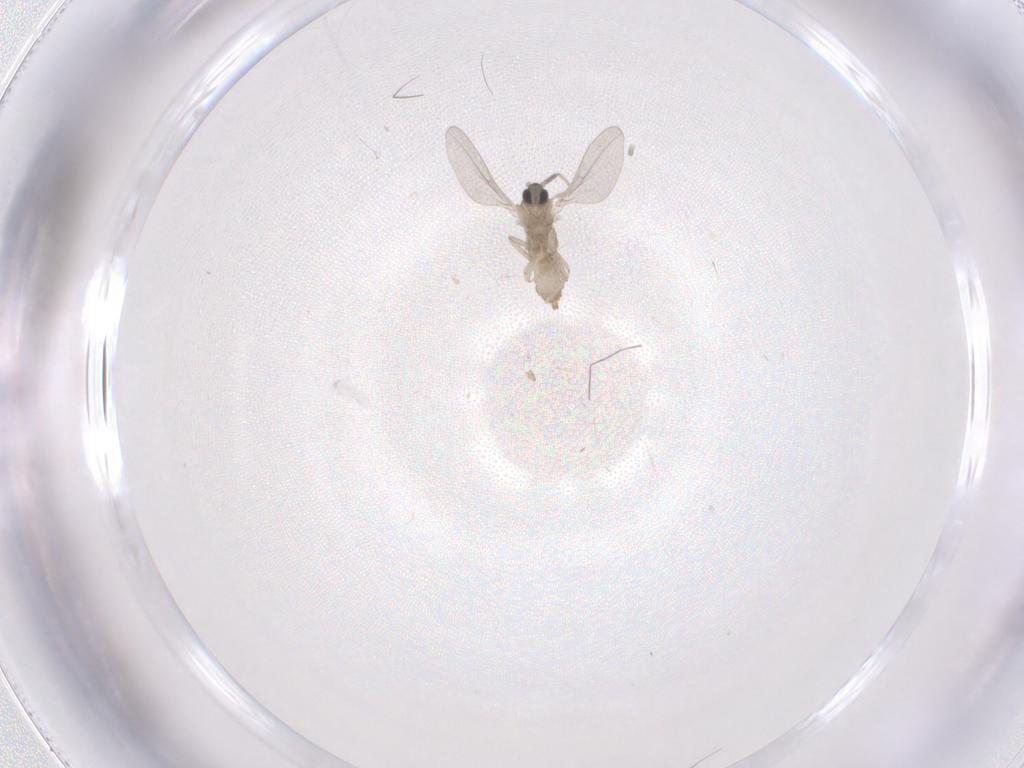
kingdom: Animalia
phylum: Arthropoda
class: Insecta
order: Diptera
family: Cecidomyiidae
